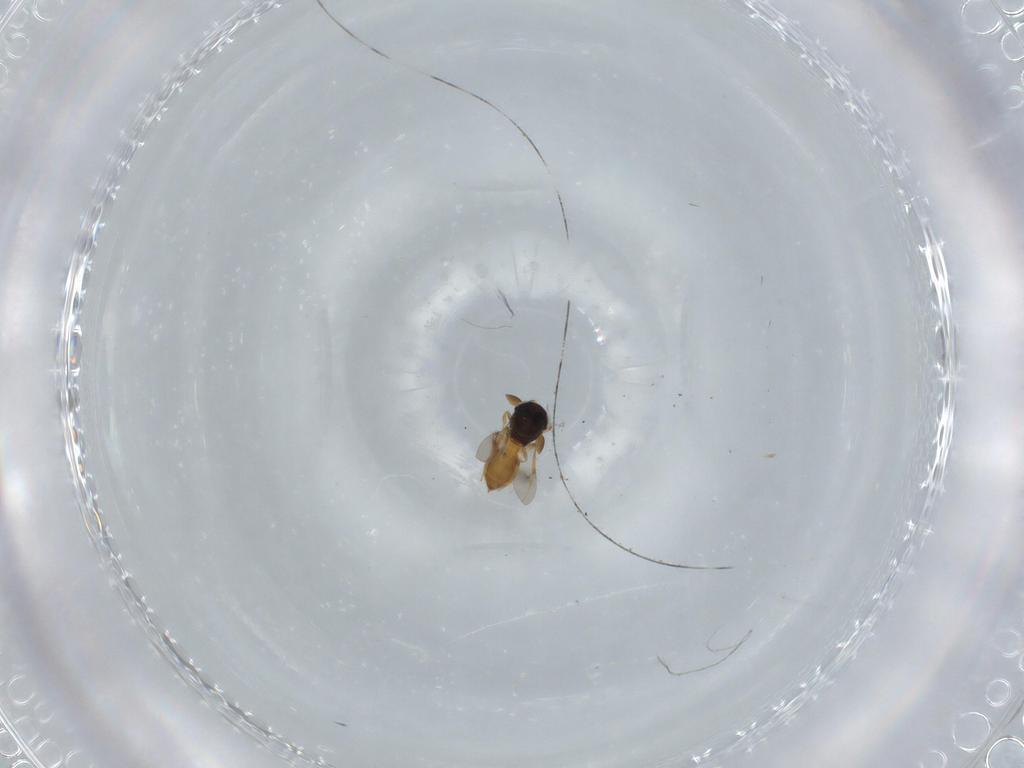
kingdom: Animalia
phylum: Arthropoda
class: Insecta
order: Hymenoptera
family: Scelionidae
